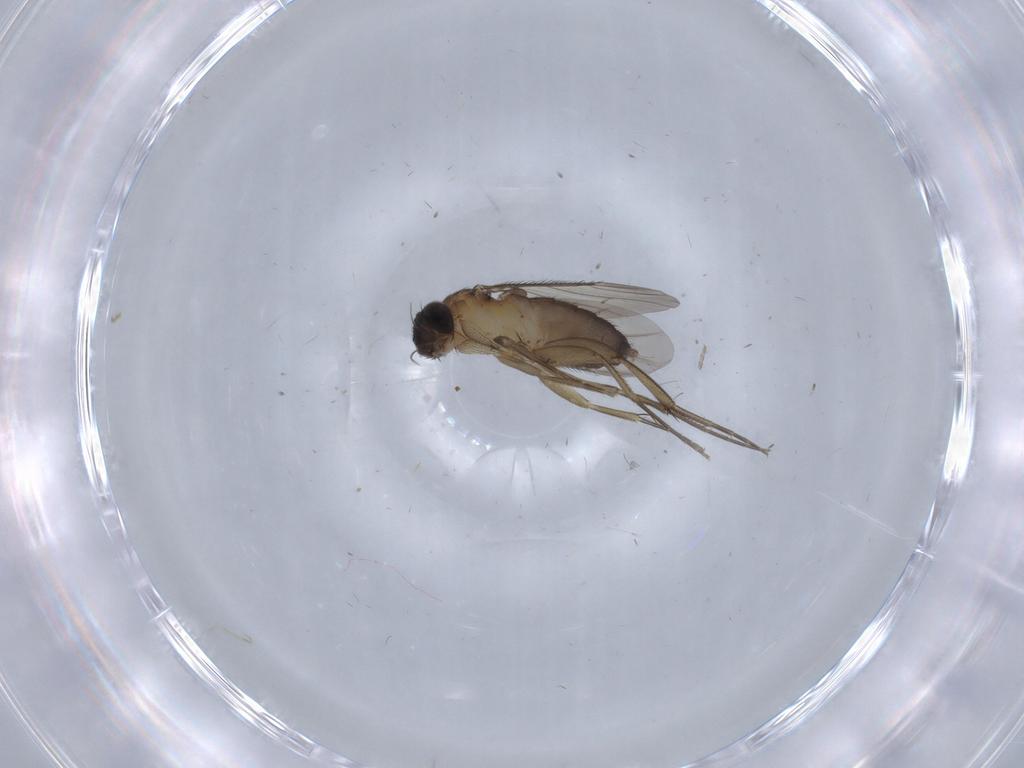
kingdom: Animalia
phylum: Arthropoda
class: Insecta
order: Diptera
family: Phoridae
